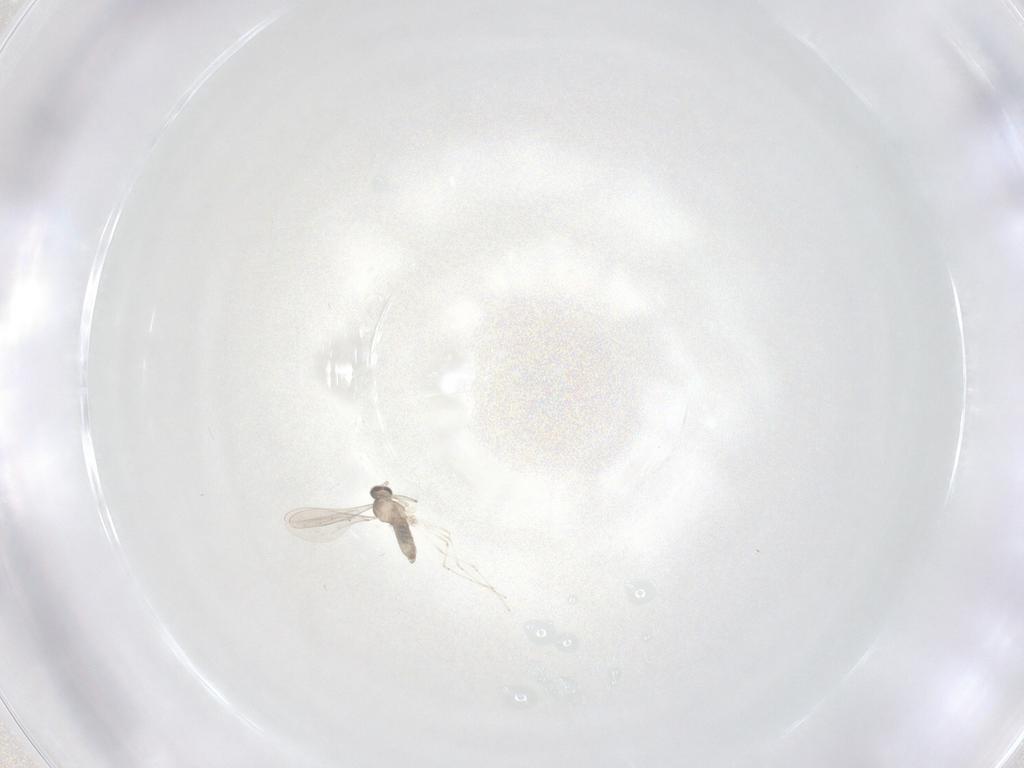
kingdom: Animalia
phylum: Arthropoda
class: Insecta
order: Diptera
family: Cecidomyiidae
